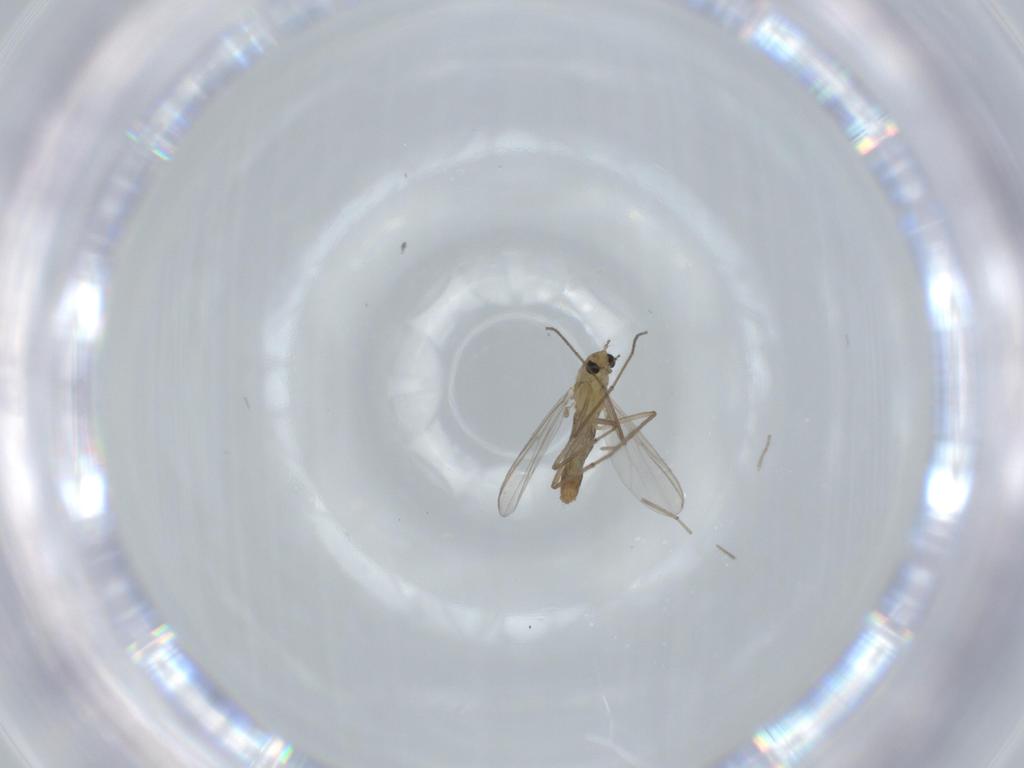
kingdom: Animalia
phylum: Arthropoda
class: Insecta
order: Diptera
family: Chironomidae
